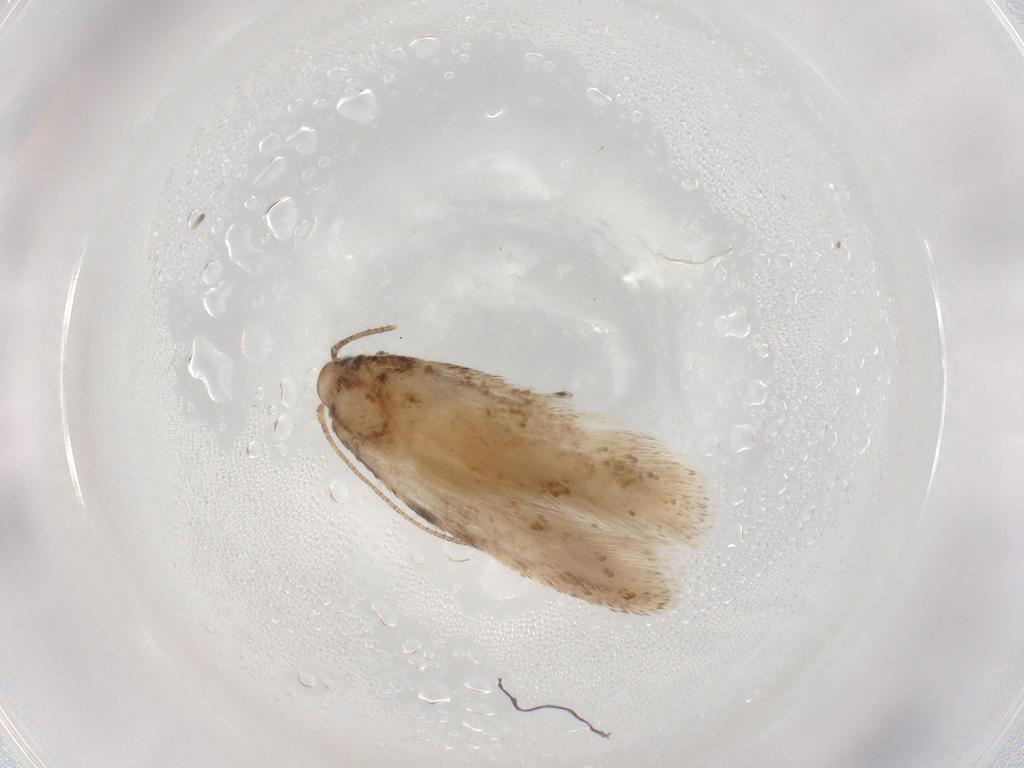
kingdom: Animalia
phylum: Arthropoda
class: Insecta
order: Lepidoptera
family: Gelechiidae
